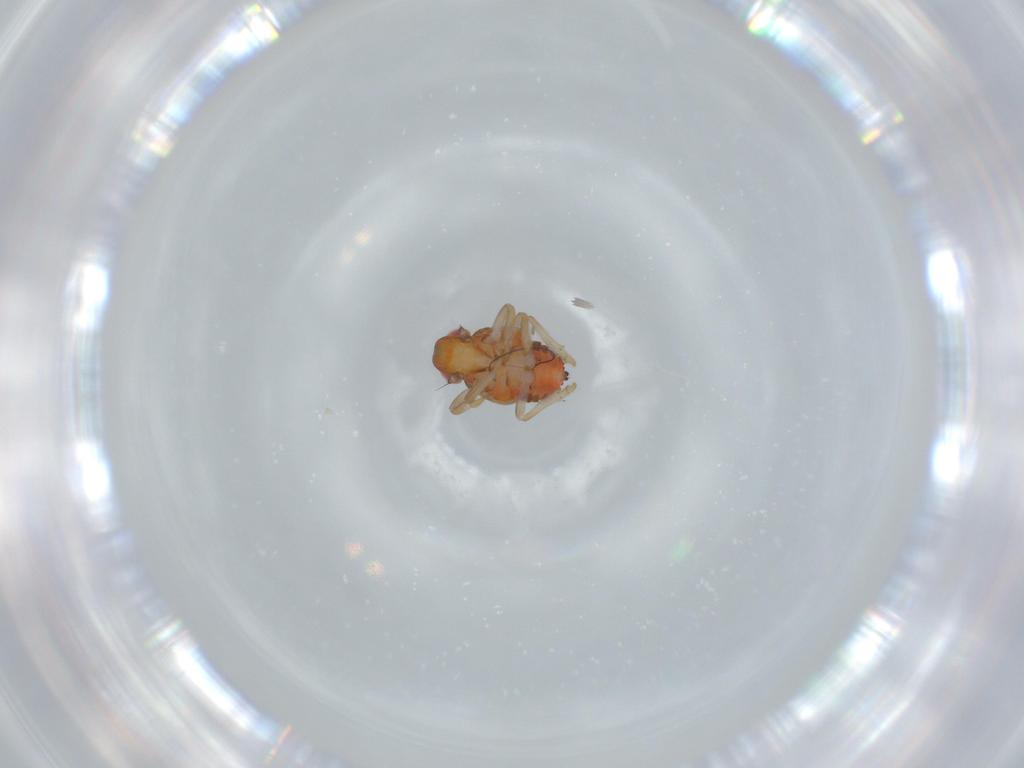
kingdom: Animalia
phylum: Arthropoda
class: Insecta
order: Hemiptera
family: Issidae
